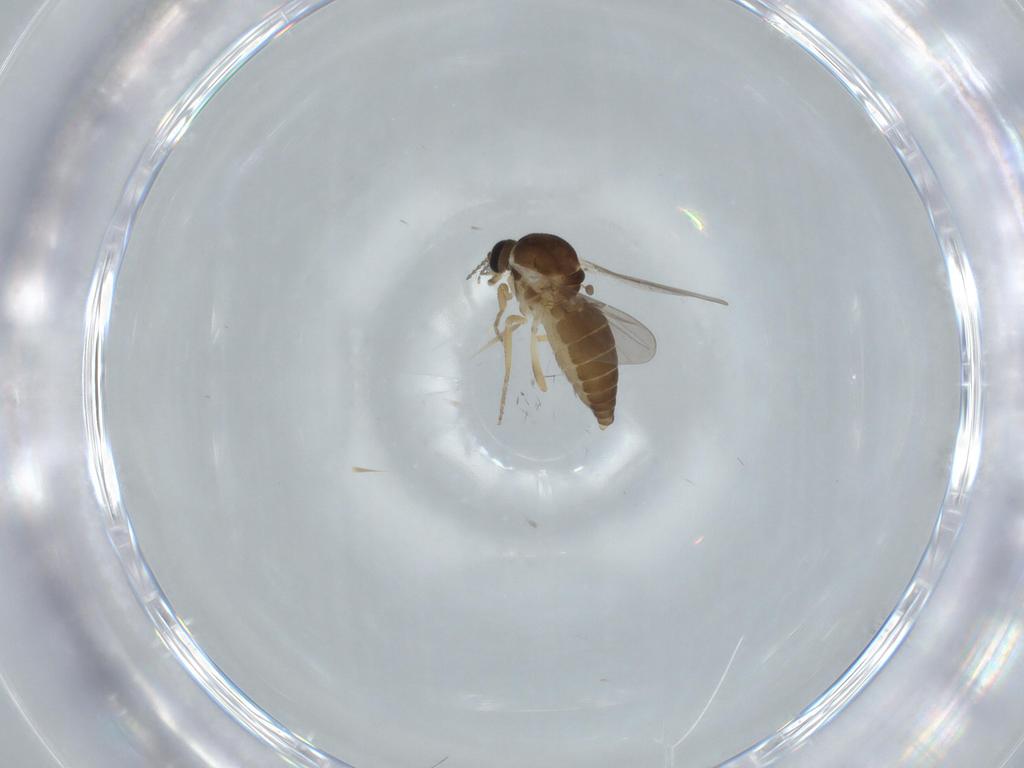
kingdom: Animalia
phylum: Arthropoda
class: Insecta
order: Diptera
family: Ceratopogonidae
